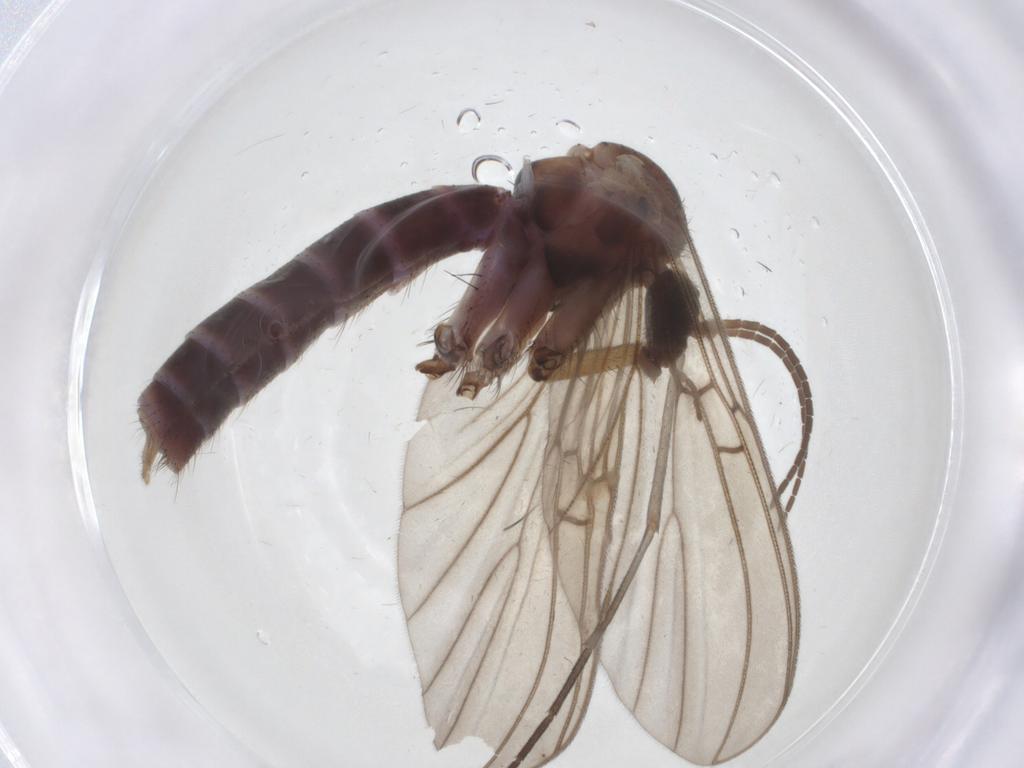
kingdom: Animalia
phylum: Arthropoda
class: Insecta
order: Diptera
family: Mycetophilidae
